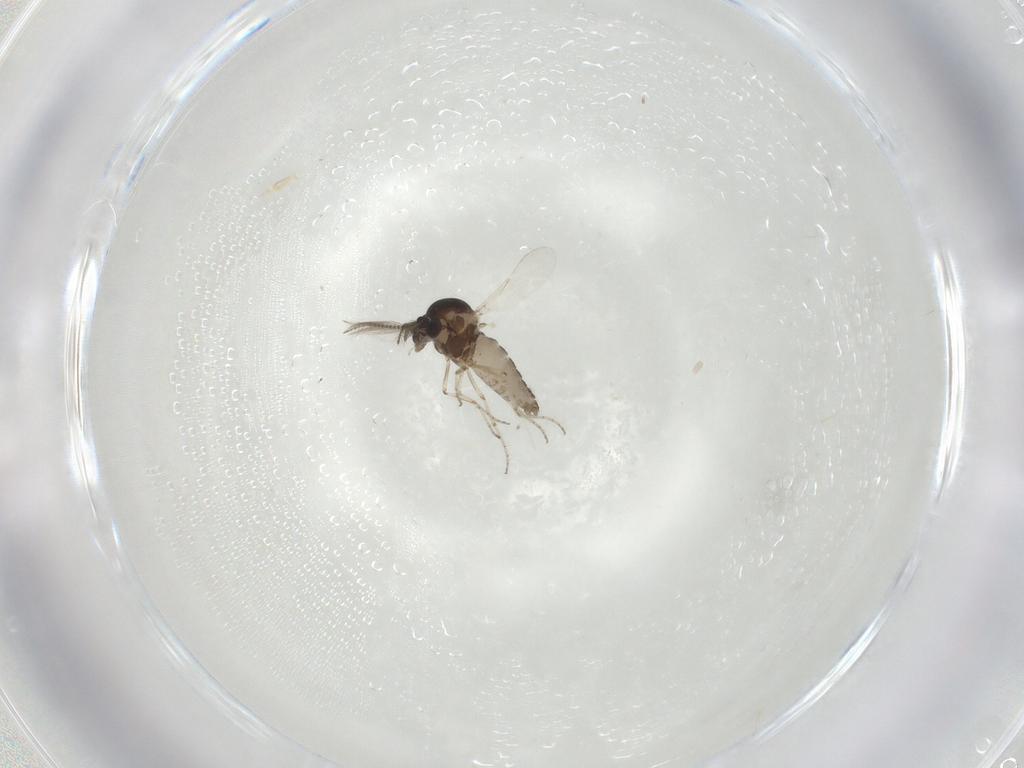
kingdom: Animalia
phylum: Arthropoda
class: Insecta
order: Diptera
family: Ceratopogonidae
